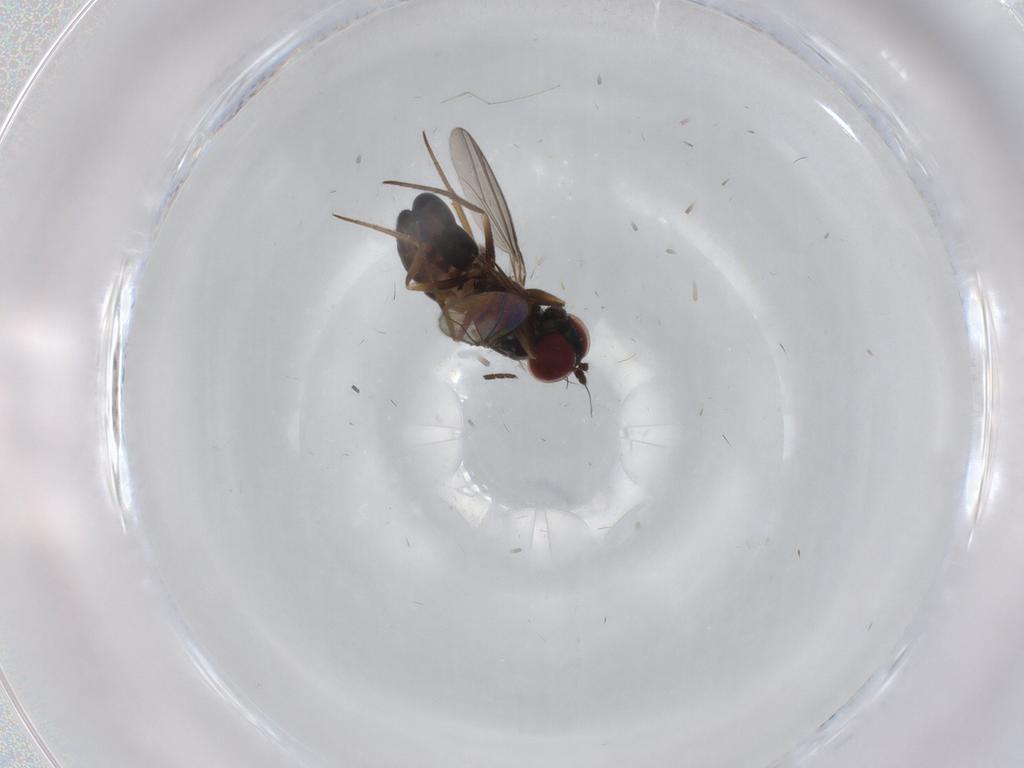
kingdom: Animalia
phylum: Arthropoda
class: Insecta
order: Diptera
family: Dolichopodidae
